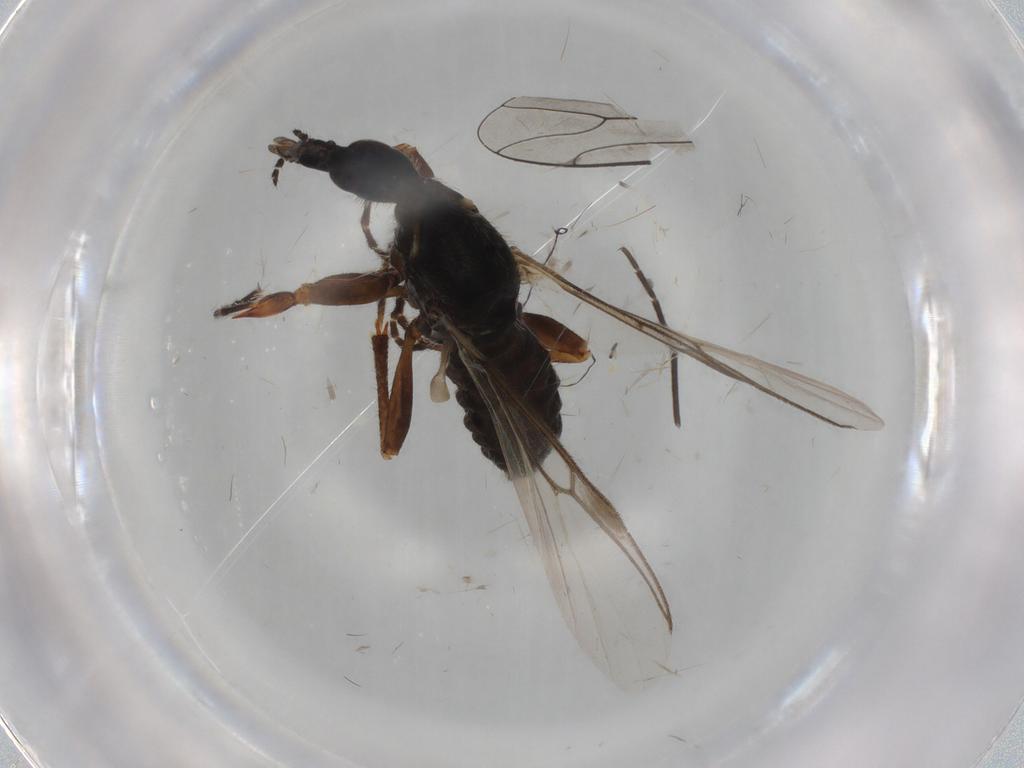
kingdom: Animalia
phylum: Arthropoda
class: Insecta
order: Diptera
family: Bibionidae
